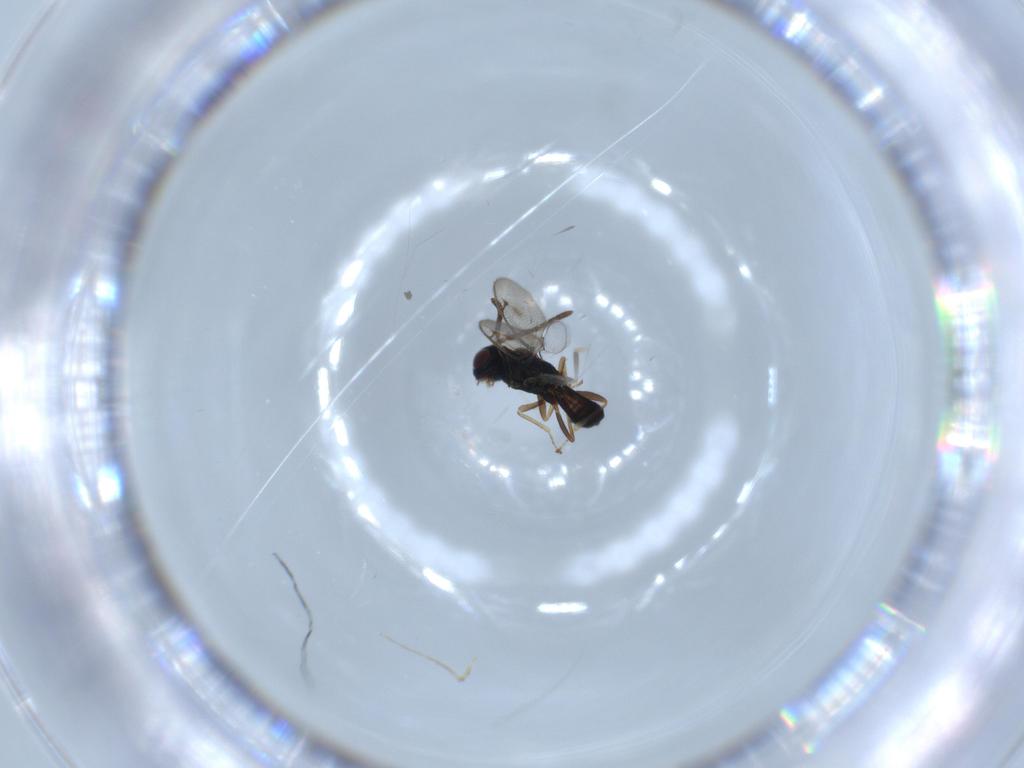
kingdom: Animalia
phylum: Arthropoda
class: Insecta
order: Hymenoptera
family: Pteromalidae
